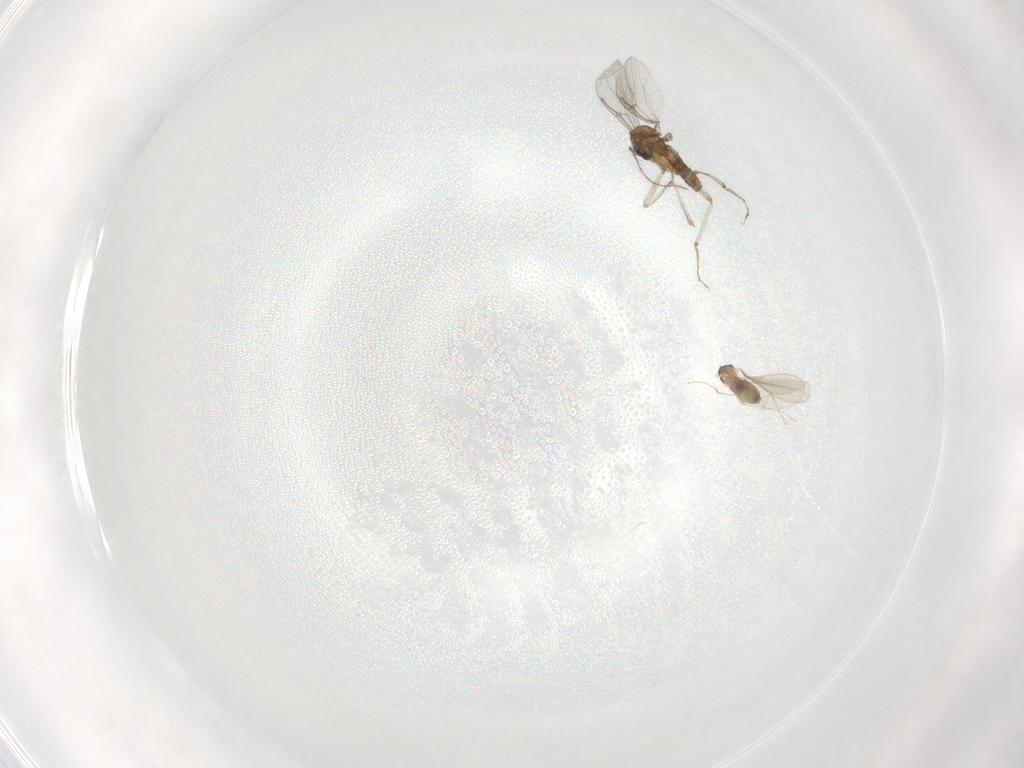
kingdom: Animalia
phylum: Arthropoda
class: Insecta
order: Diptera
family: Cecidomyiidae
